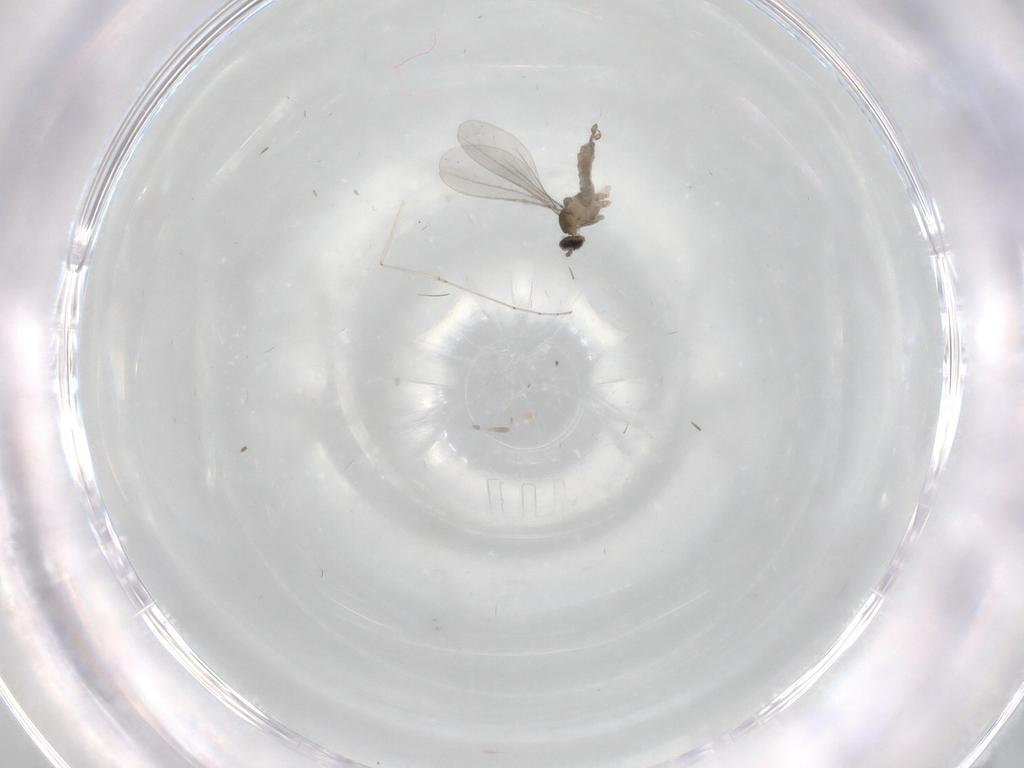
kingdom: Animalia
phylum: Arthropoda
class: Insecta
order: Diptera
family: Cecidomyiidae
